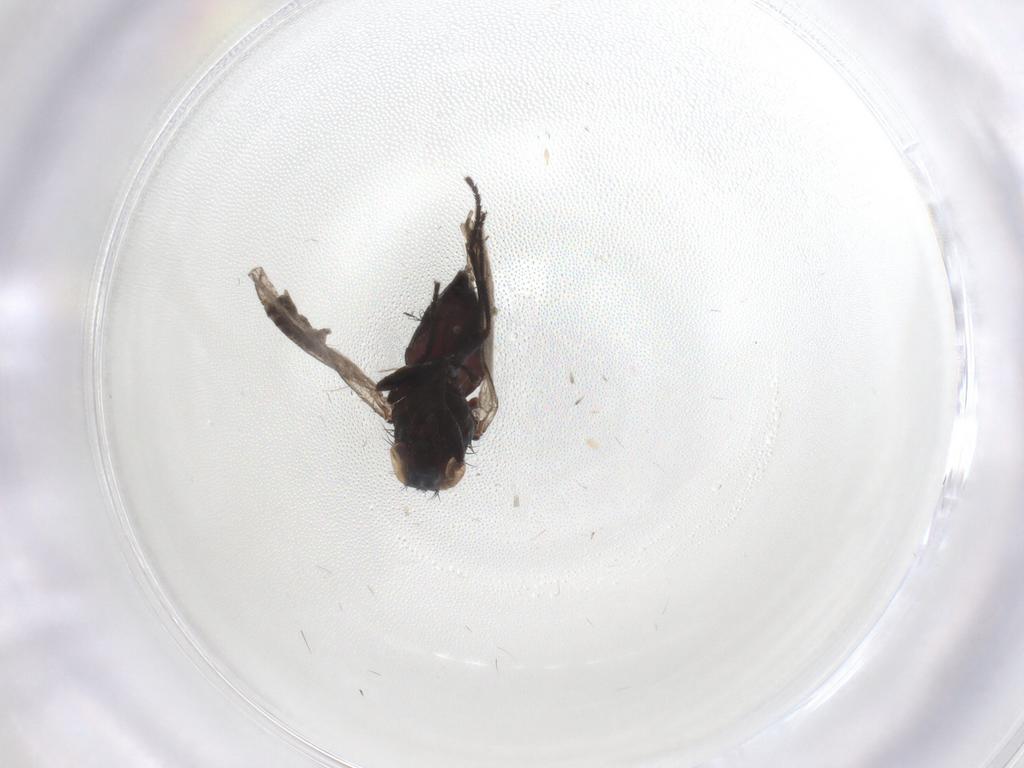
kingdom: Animalia
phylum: Arthropoda
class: Insecta
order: Diptera
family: Milichiidae
